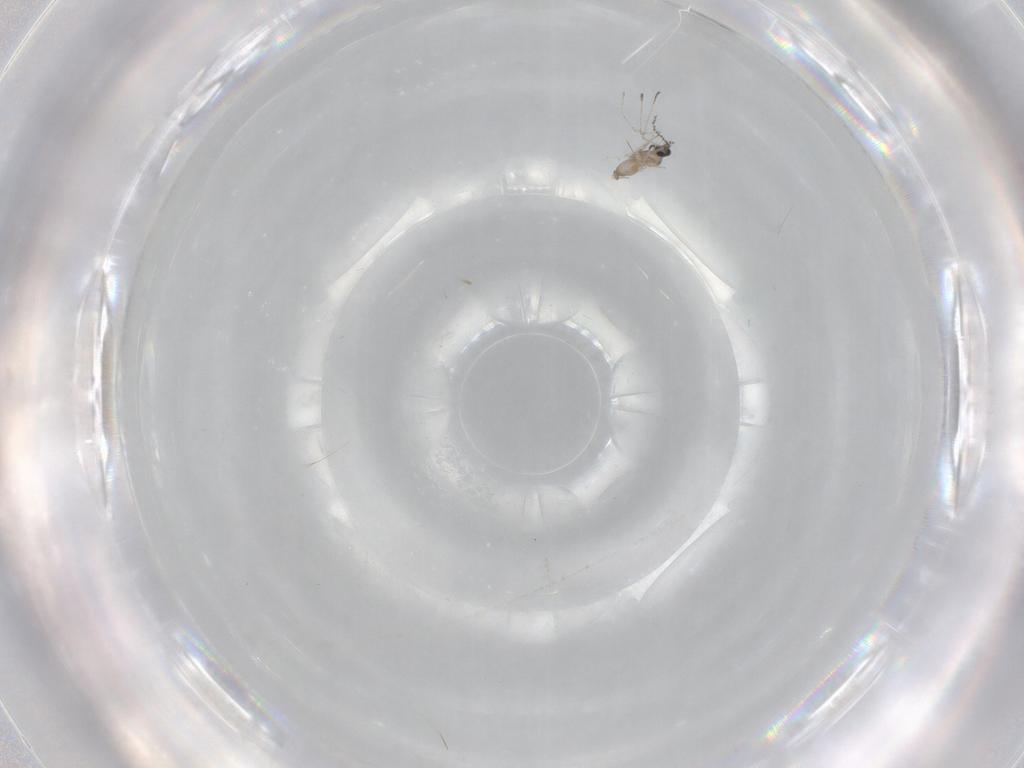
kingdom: Animalia
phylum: Arthropoda
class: Insecta
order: Diptera
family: Cecidomyiidae
